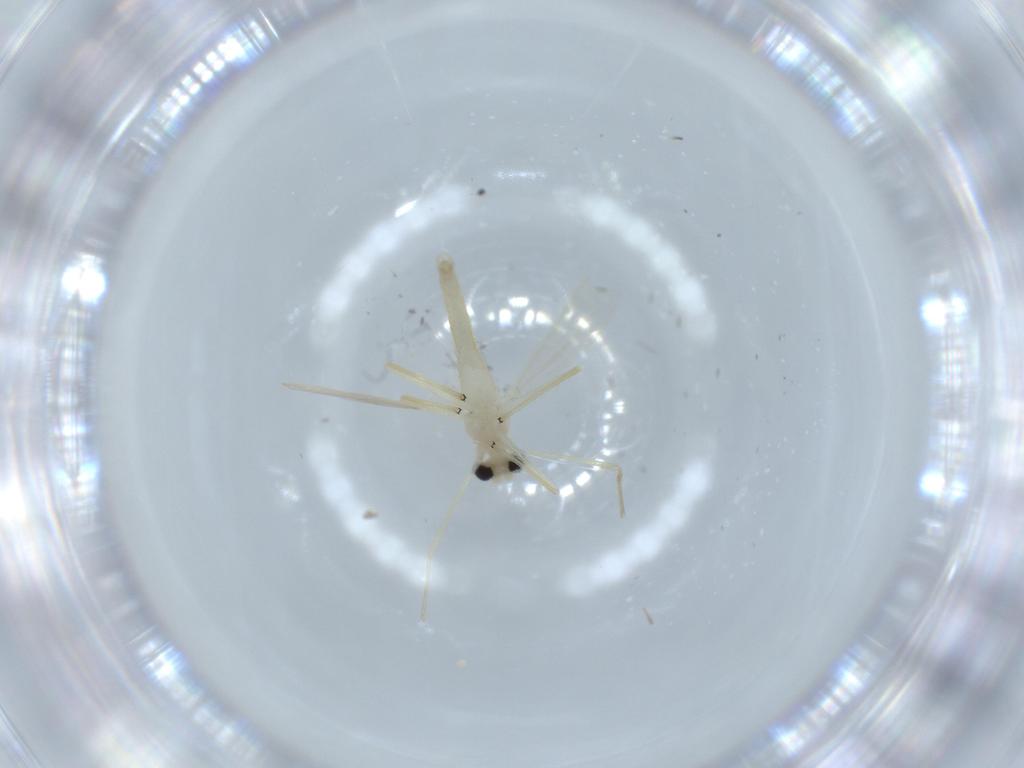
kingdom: Animalia
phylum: Arthropoda
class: Insecta
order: Diptera
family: Chironomidae
